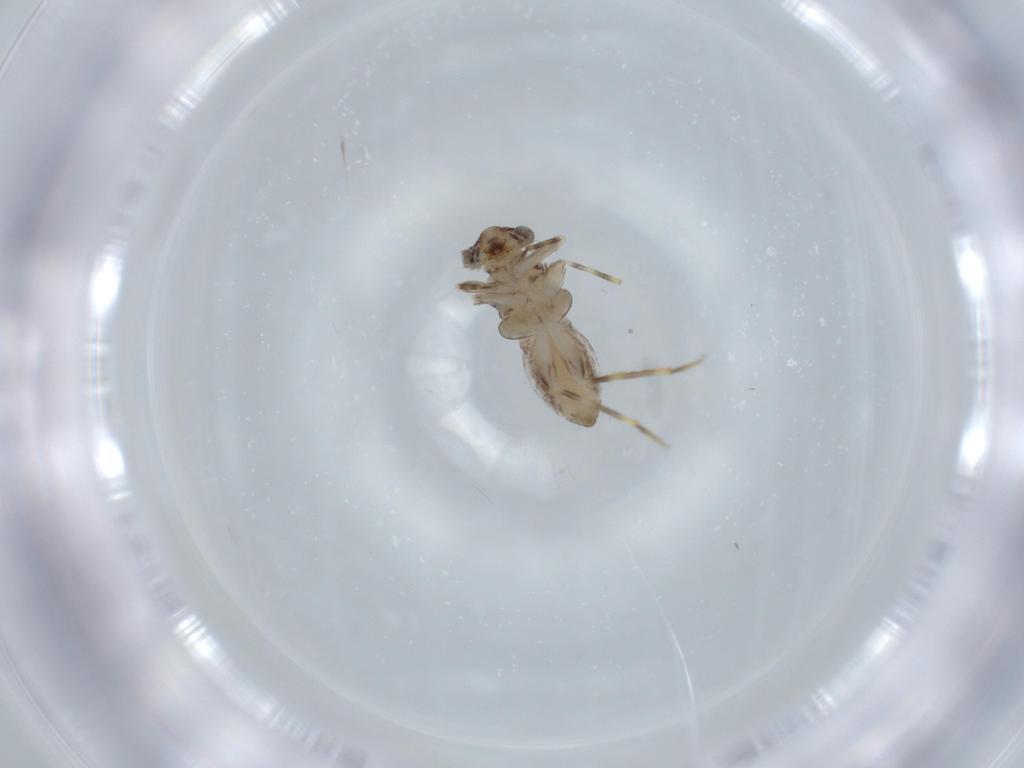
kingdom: Animalia
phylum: Arthropoda
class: Insecta
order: Psocodea
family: Lepidopsocidae
